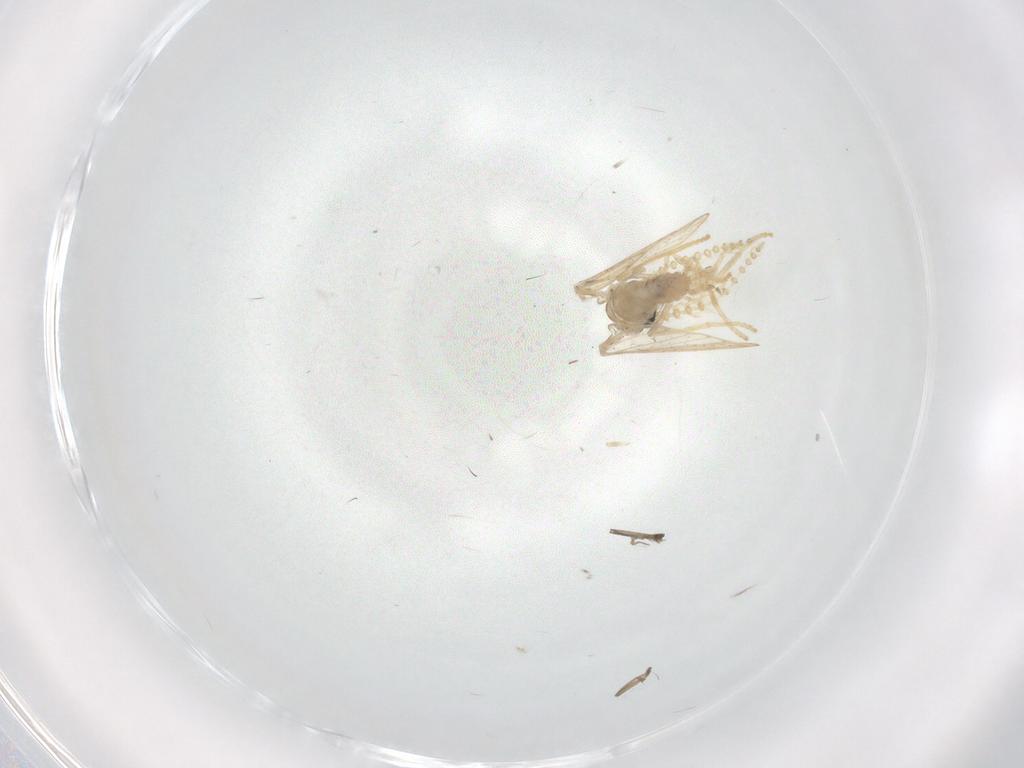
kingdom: Animalia
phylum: Arthropoda
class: Insecta
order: Diptera
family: Psychodidae
